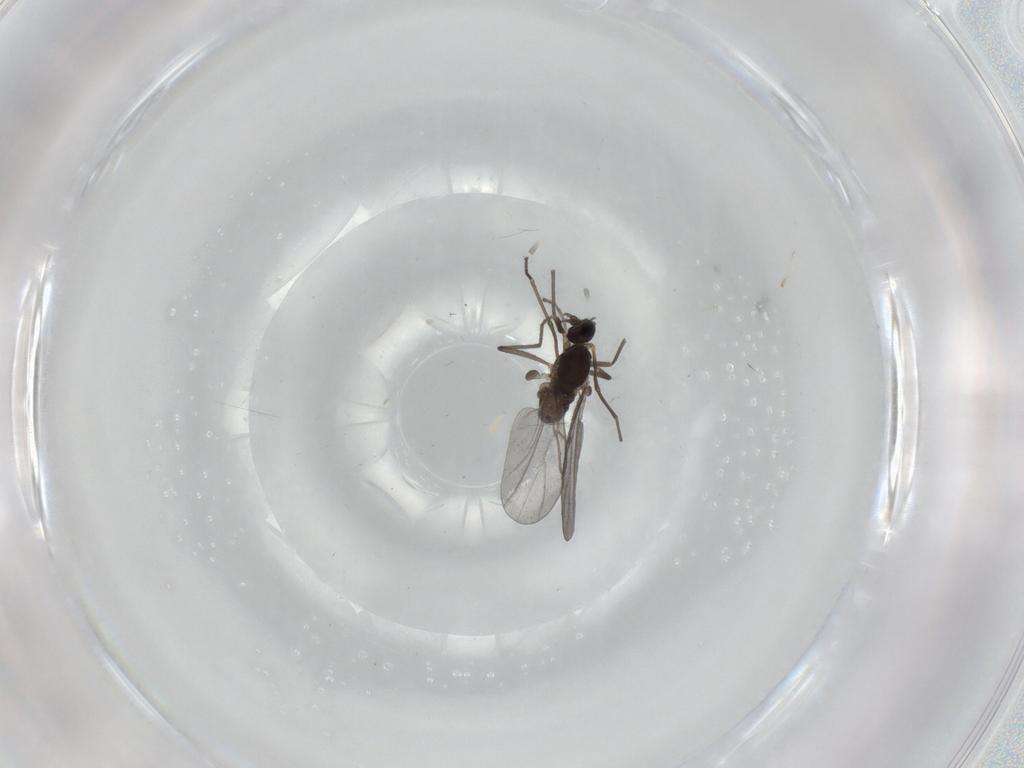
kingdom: Animalia
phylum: Arthropoda
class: Insecta
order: Diptera
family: Cecidomyiidae
